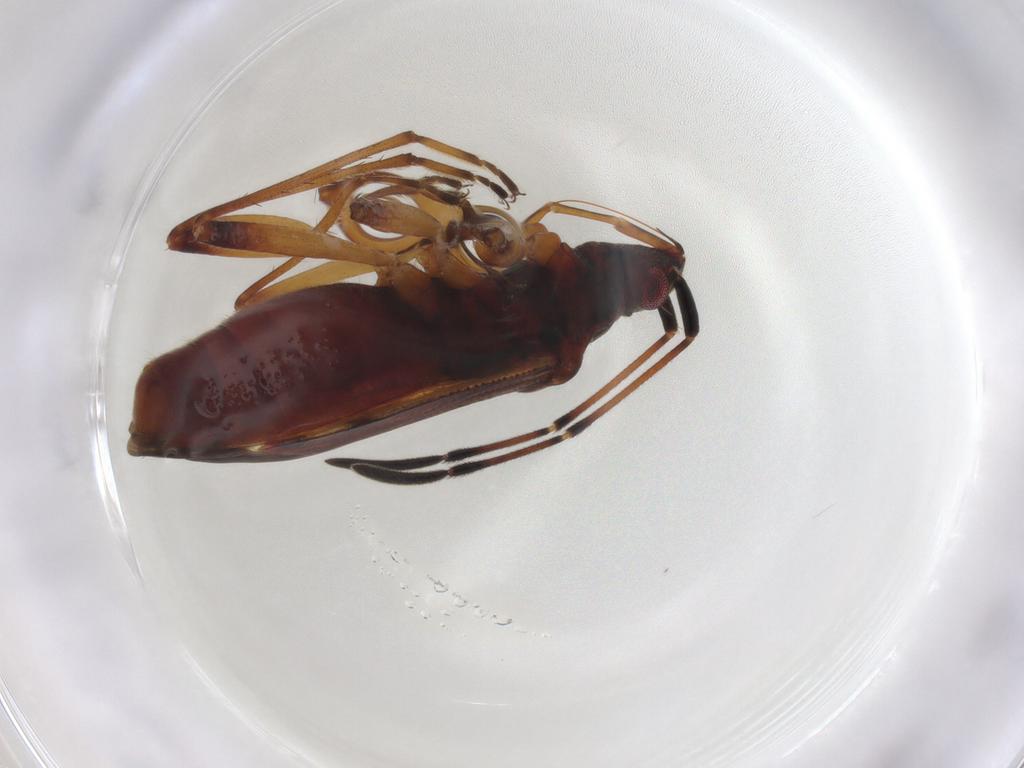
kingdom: Animalia
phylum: Arthropoda
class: Insecta
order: Hemiptera
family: Rhyparochromidae
